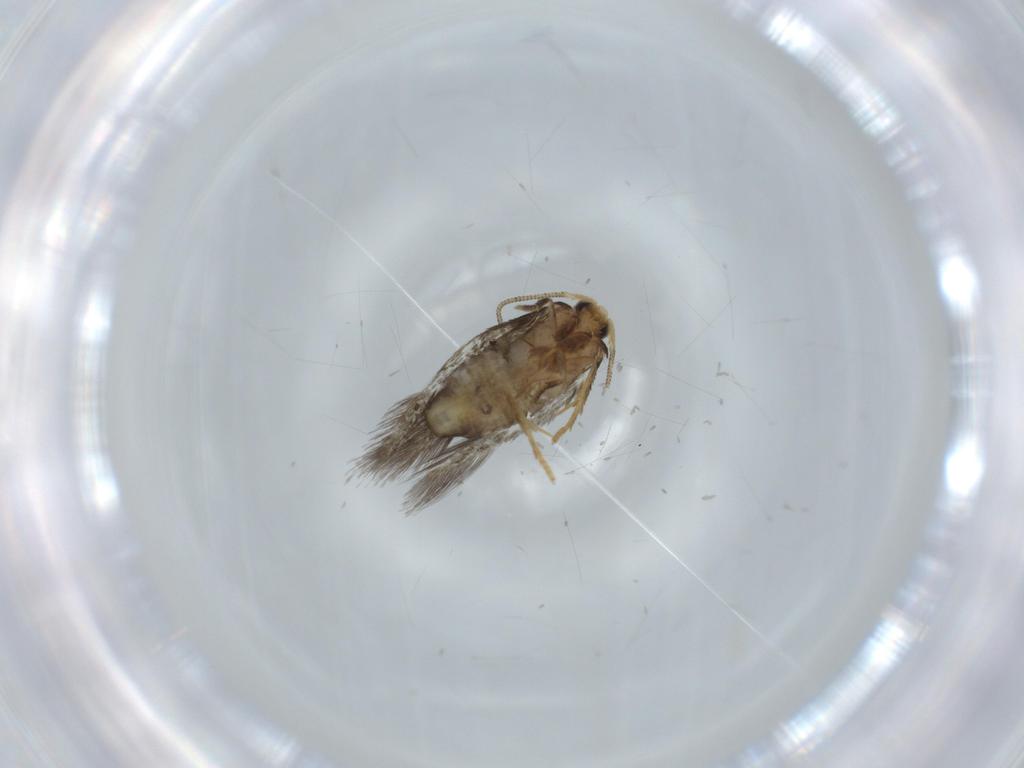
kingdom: Animalia
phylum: Arthropoda
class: Insecta
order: Lepidoptera
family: Nepticulidae
